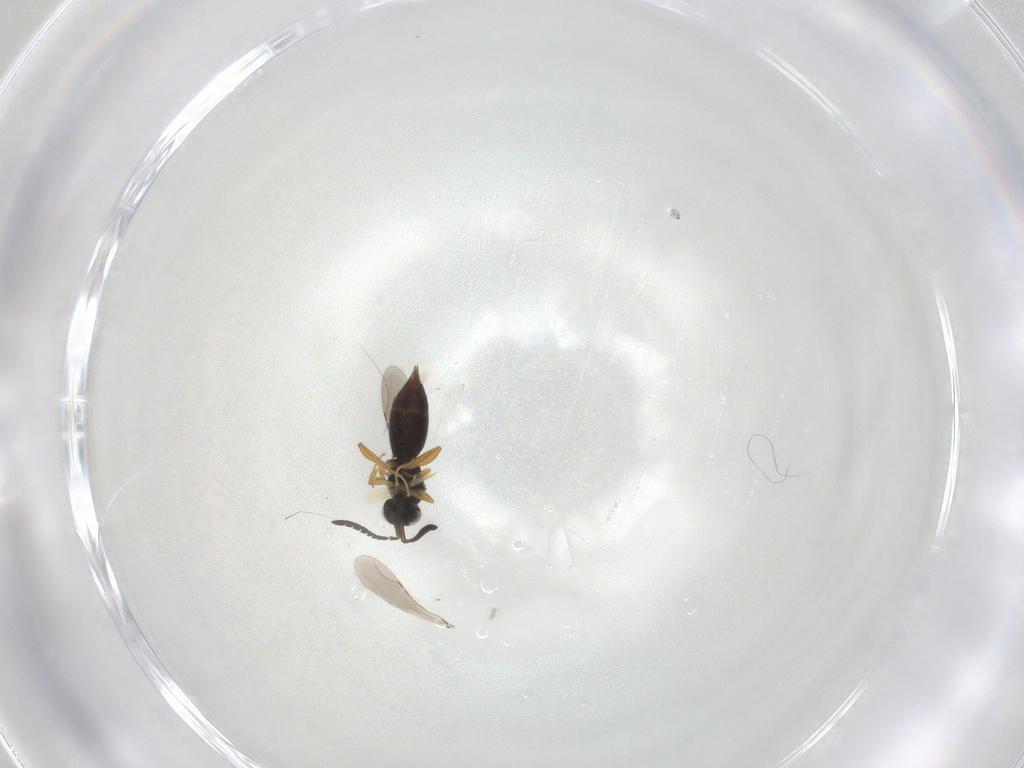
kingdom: Animalia
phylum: Arthropoda
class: Insecta
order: Hymenoptera
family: Ceraphronidae
